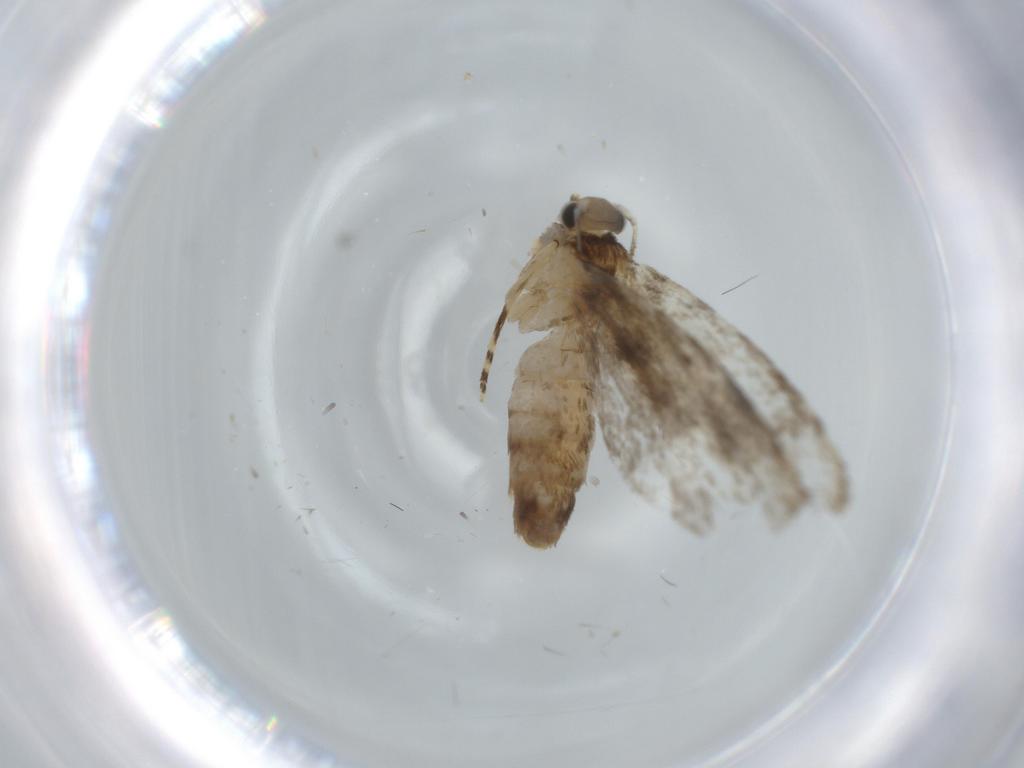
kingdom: Animalia
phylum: Arthropoda
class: Insecta
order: Lepidoptera
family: Tineidae
